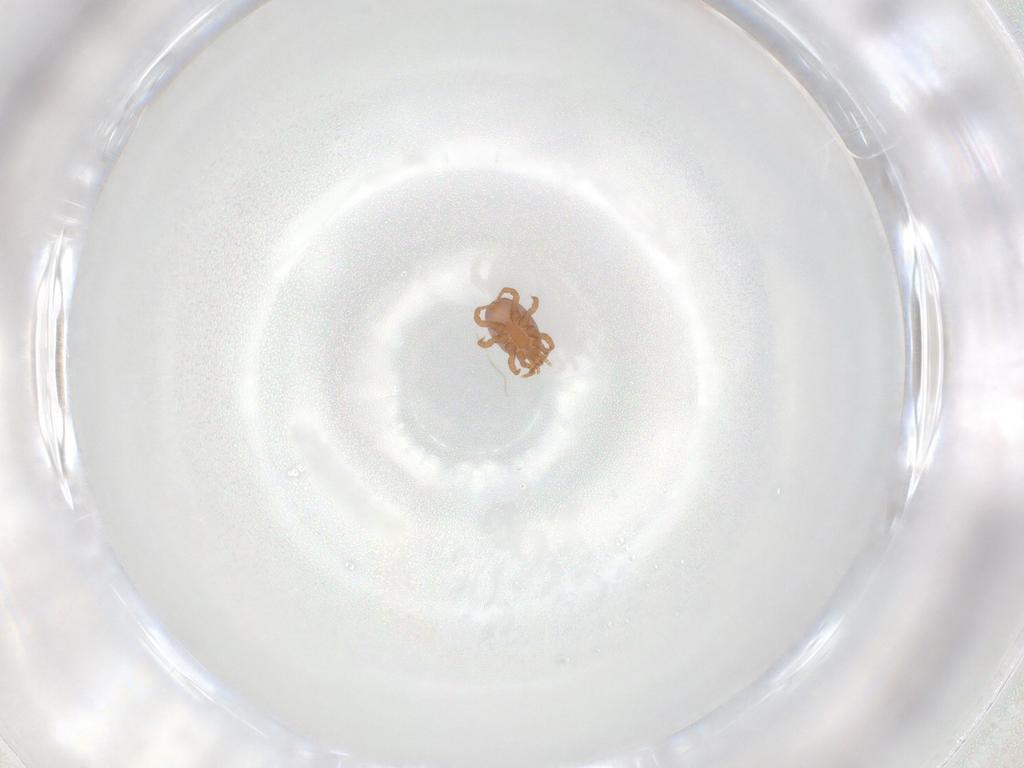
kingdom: Animalia
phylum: Arthropoda
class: Arachnida
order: Mesostigmata
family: Eviphididae
